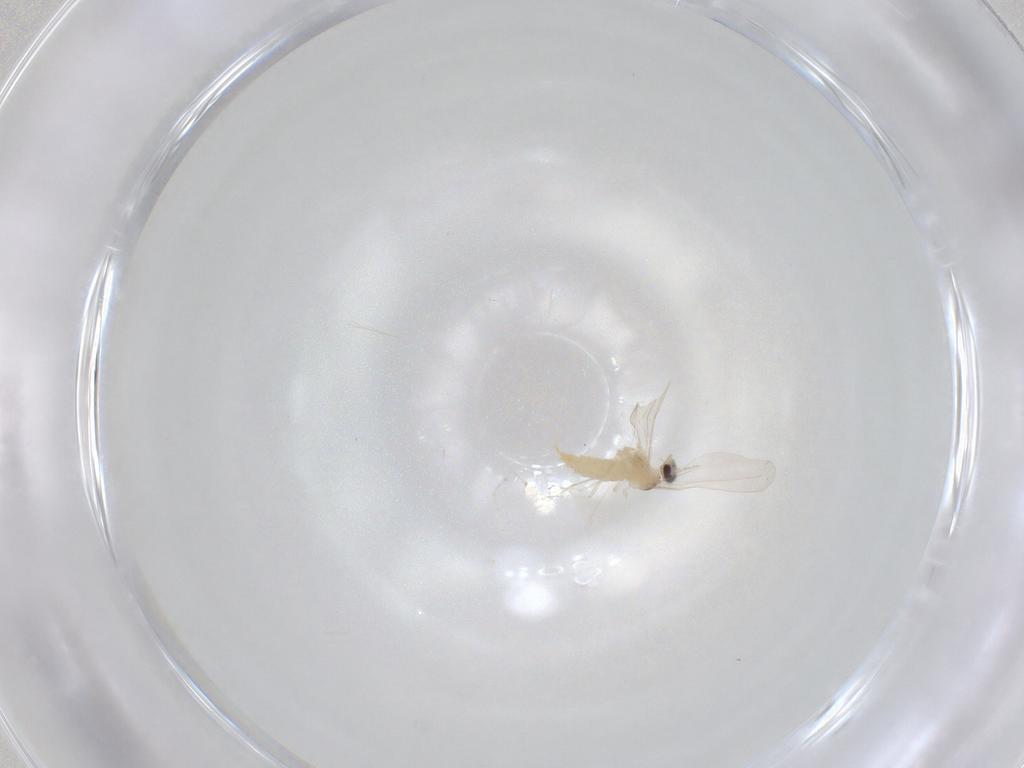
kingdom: Animalia
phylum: Arthropoda
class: Insecta
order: Diptera
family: Cecidomyiidae
